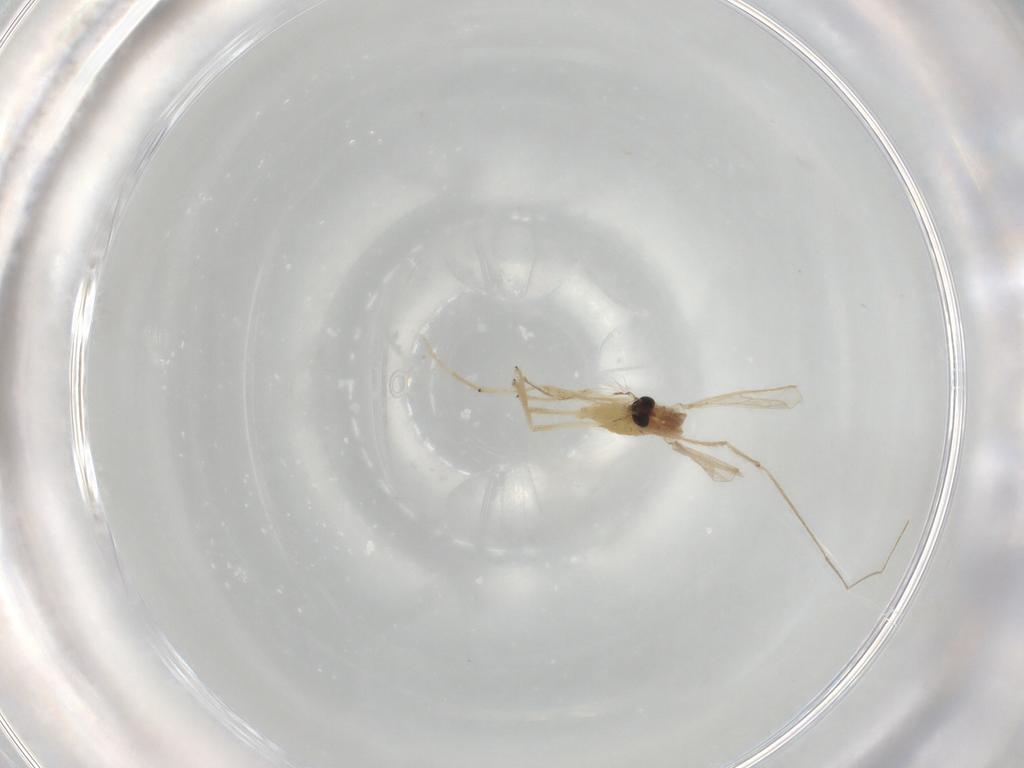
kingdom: Animalia
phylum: Arthropoda
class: Insecta
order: Diptera
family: Chironomidae
